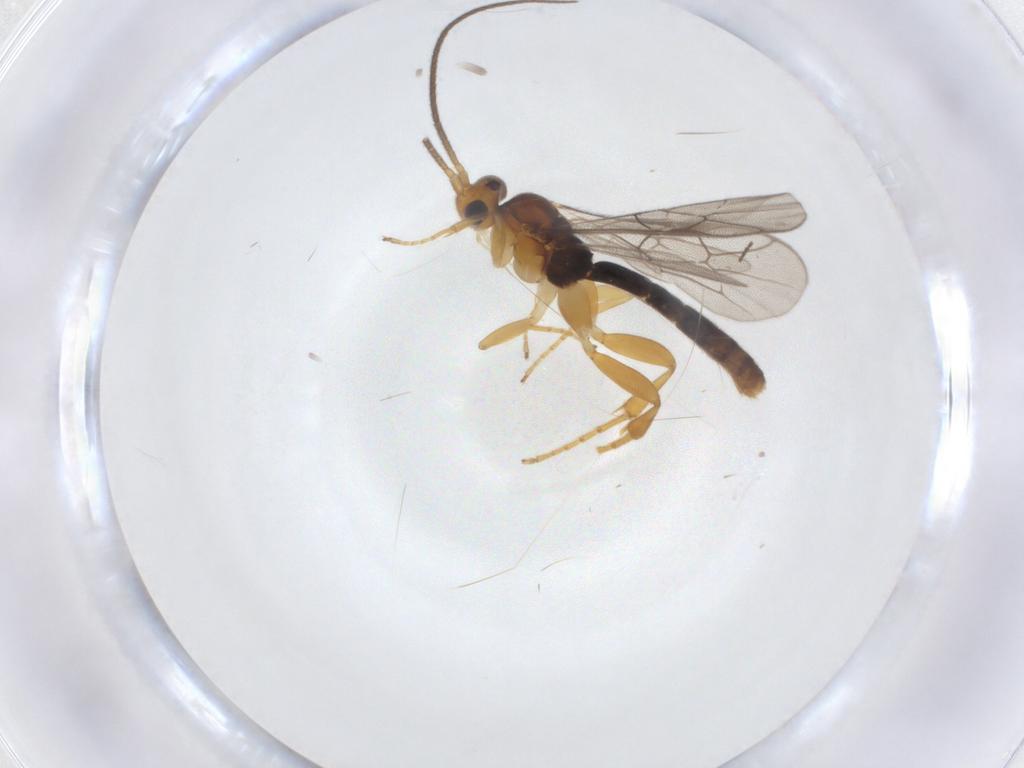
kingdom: Animalia
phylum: Arthropoda
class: Insecta
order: Hymenoptera
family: Ichneumonidae
